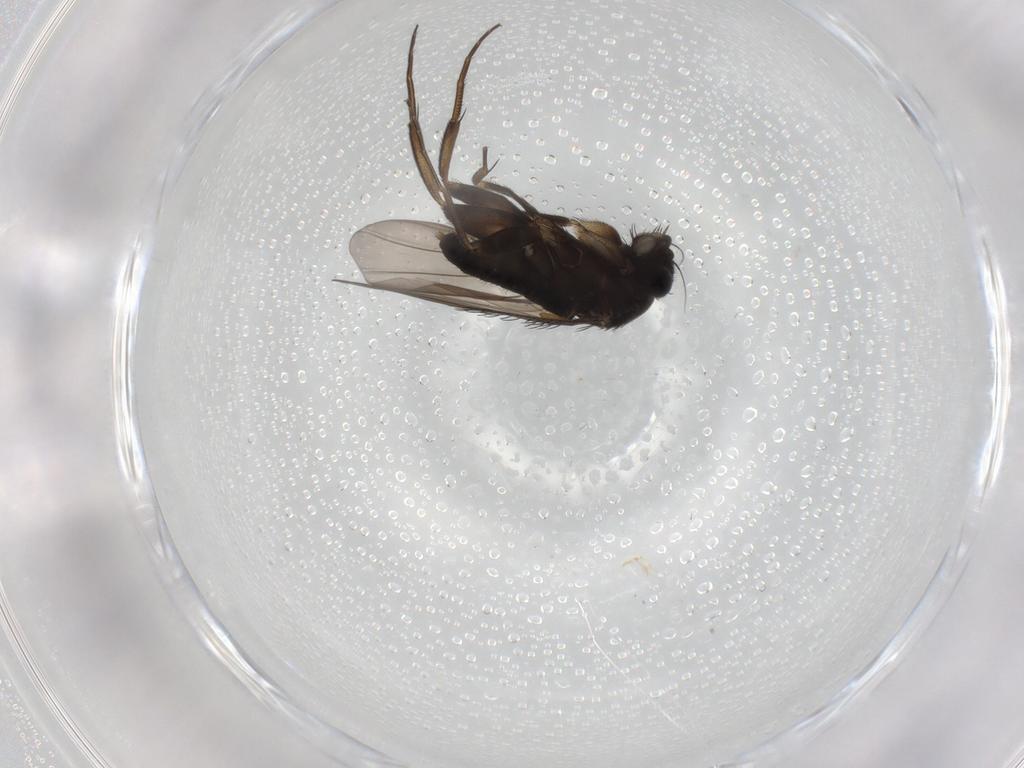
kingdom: Animalia
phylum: Arthropoda
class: Insecta
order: Diptera
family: Phoridae
